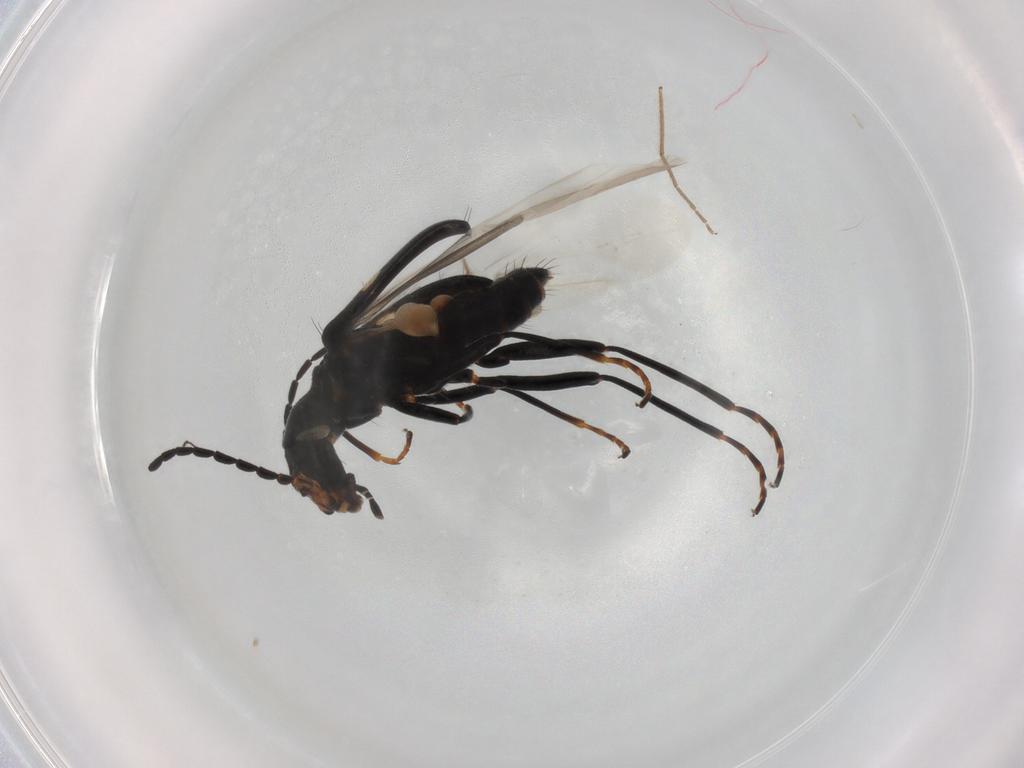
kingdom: Animalia
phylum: Arthropoda
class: Insecta
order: Coleoptera
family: Melyridae
